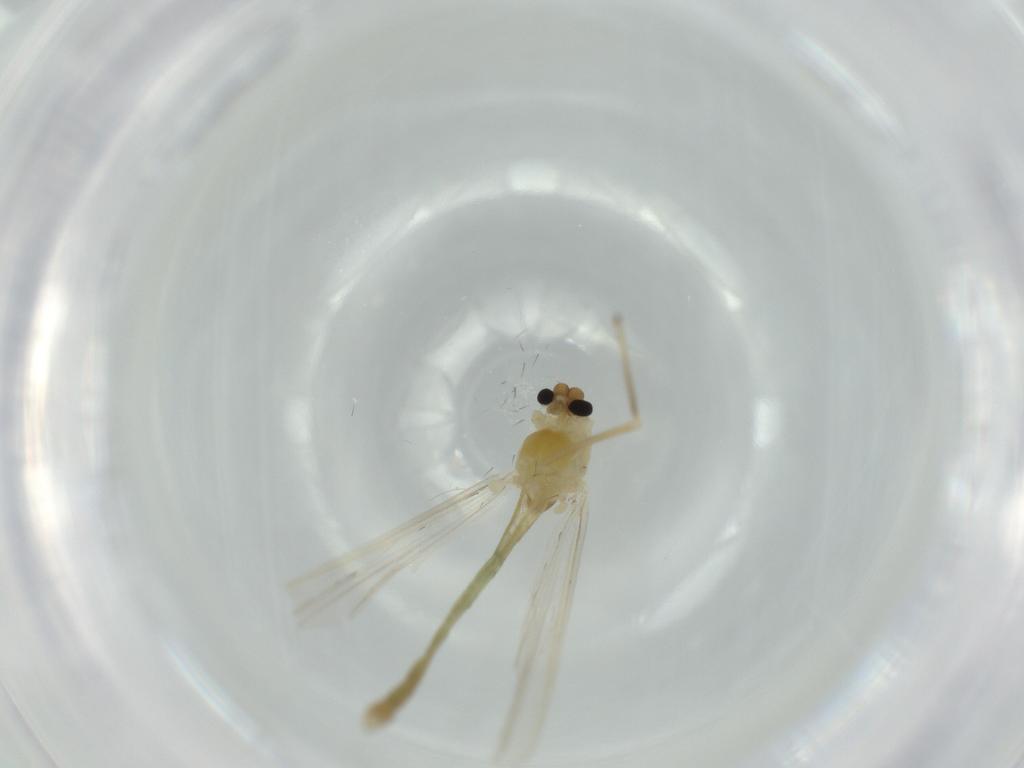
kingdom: Animalia
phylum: Arthropoda
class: Insecta
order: Diptera
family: Chironomidae
